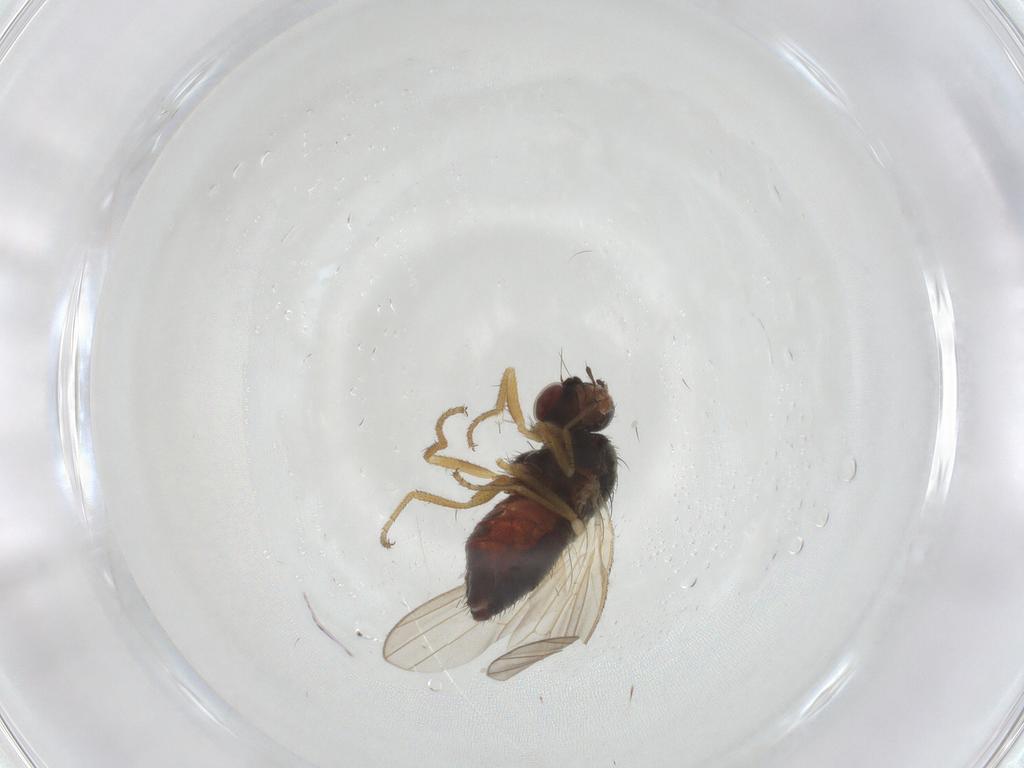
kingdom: Animalia
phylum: Arthropoda
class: Insecta
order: Diptera
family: Heleomyzidae
